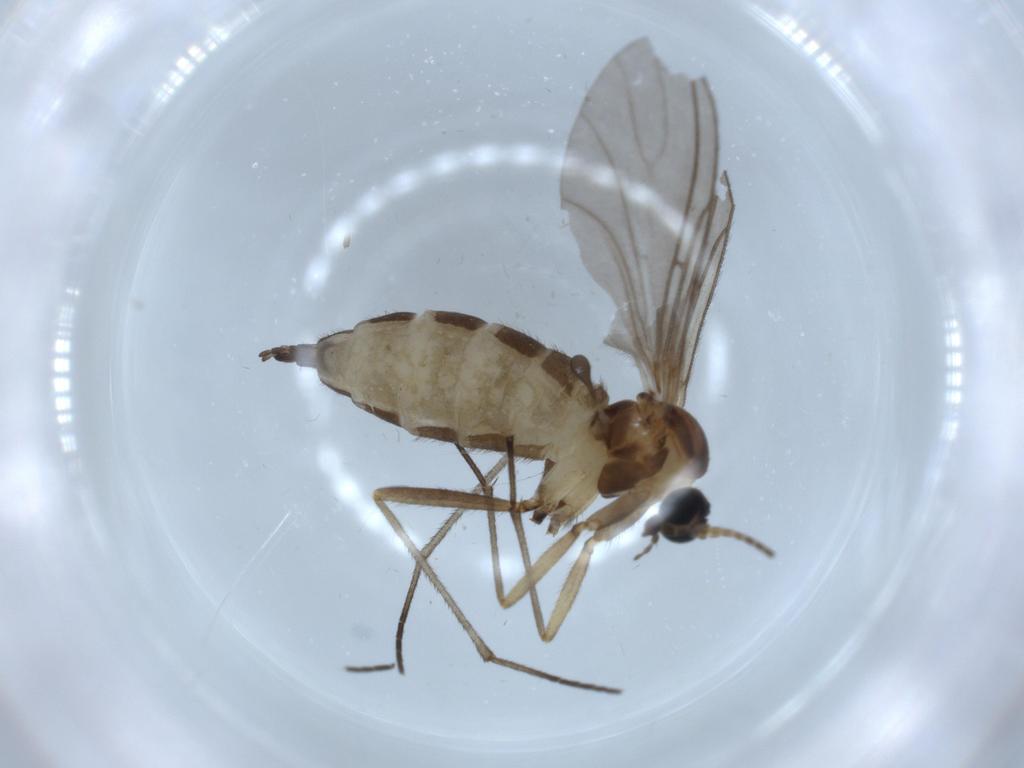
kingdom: Animalia
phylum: Arthropoda
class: Insecta
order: Diptera
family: Sciaridae
